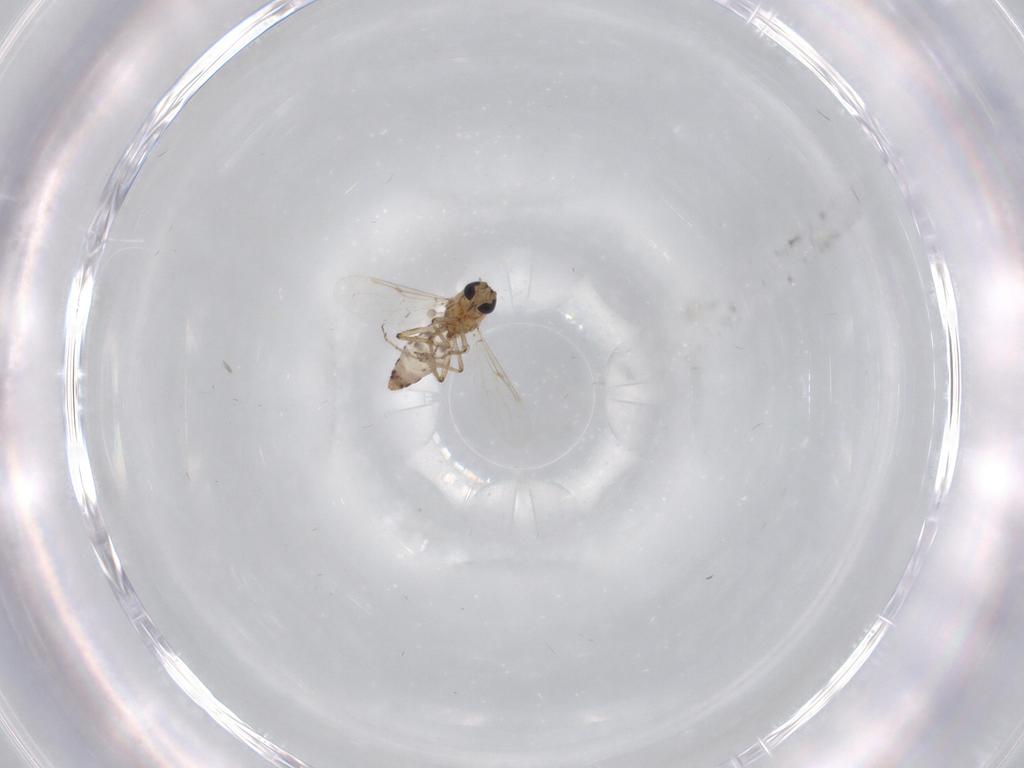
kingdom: Animalia
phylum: Arthropoda
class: Insecta
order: Diptera
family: Ceratopogonidae
